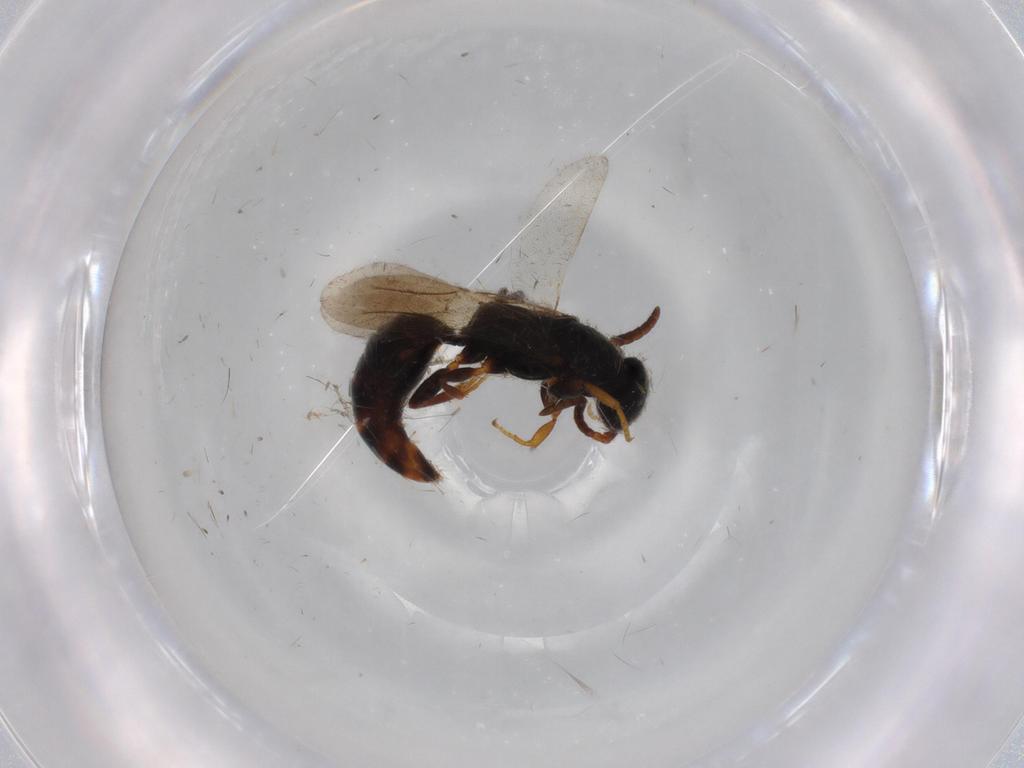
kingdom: Animalia
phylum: Arthropoda
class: Insecta
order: Hymenoptera
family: Bethylidae
